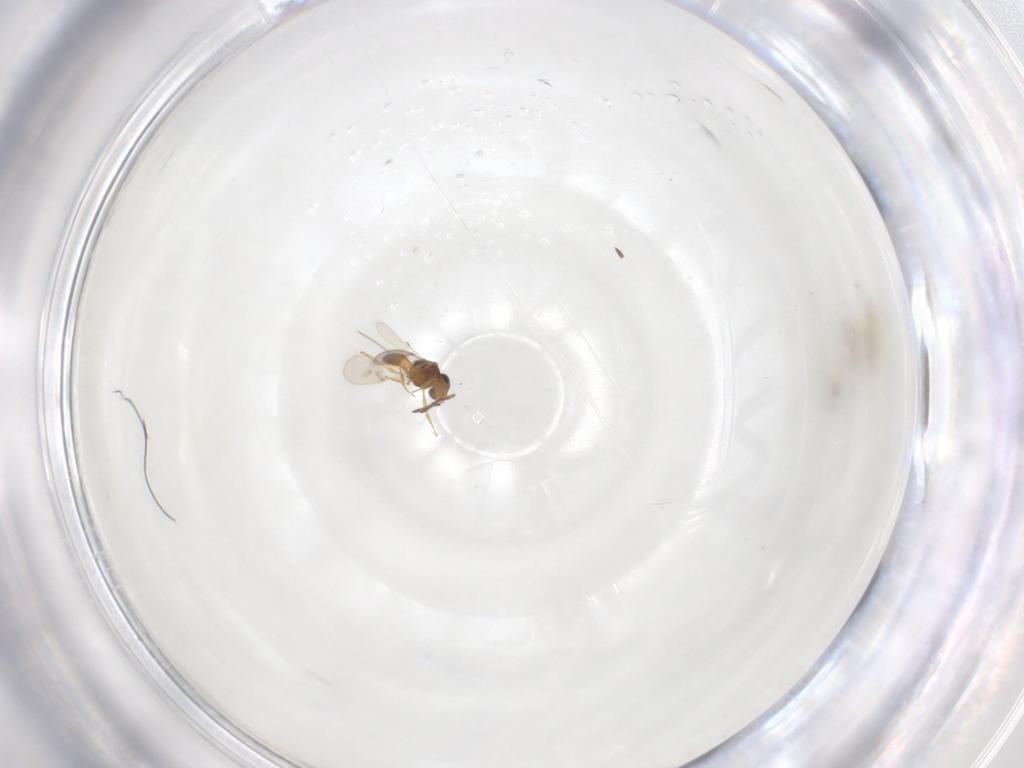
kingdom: Animalia
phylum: Arthropoda
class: Insecta
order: Hymenoptera
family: Scelionidae
